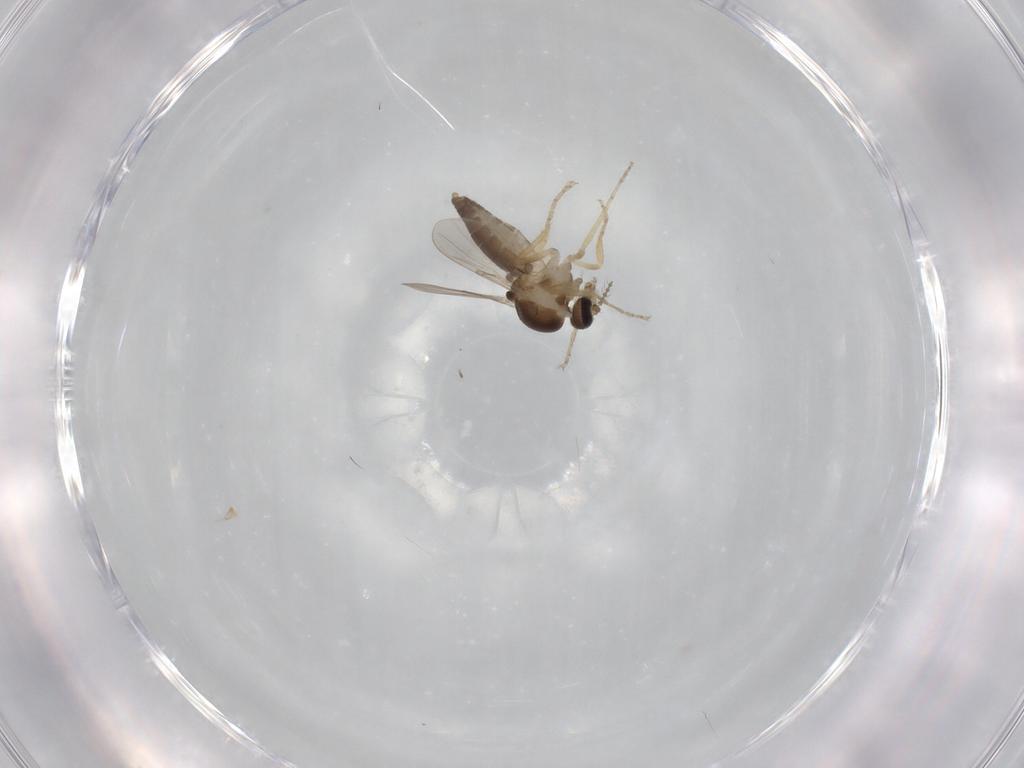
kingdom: Animalia
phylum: Arthropoda
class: Insecta
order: Diptera
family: Ceratopogonidae
